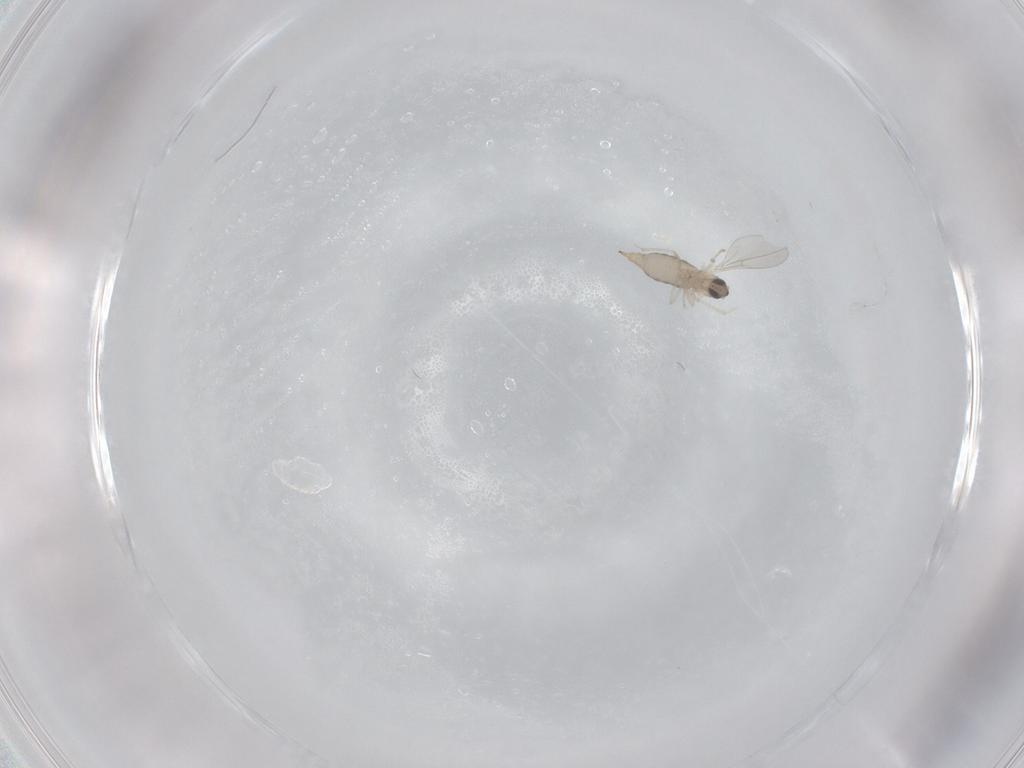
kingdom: Animalia
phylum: Arthropoda
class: Insecta
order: Diptera
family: Cecidomyiidae
